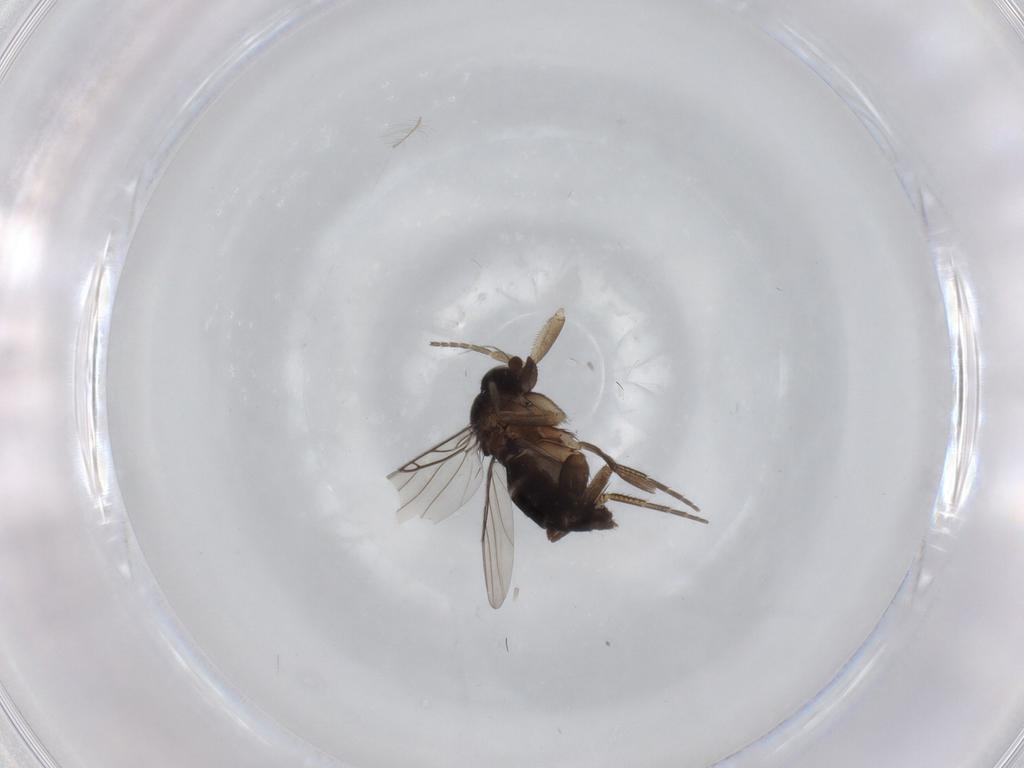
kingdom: Animalia
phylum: Arthropoda
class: Insecta
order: Diptera
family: Phoridae
